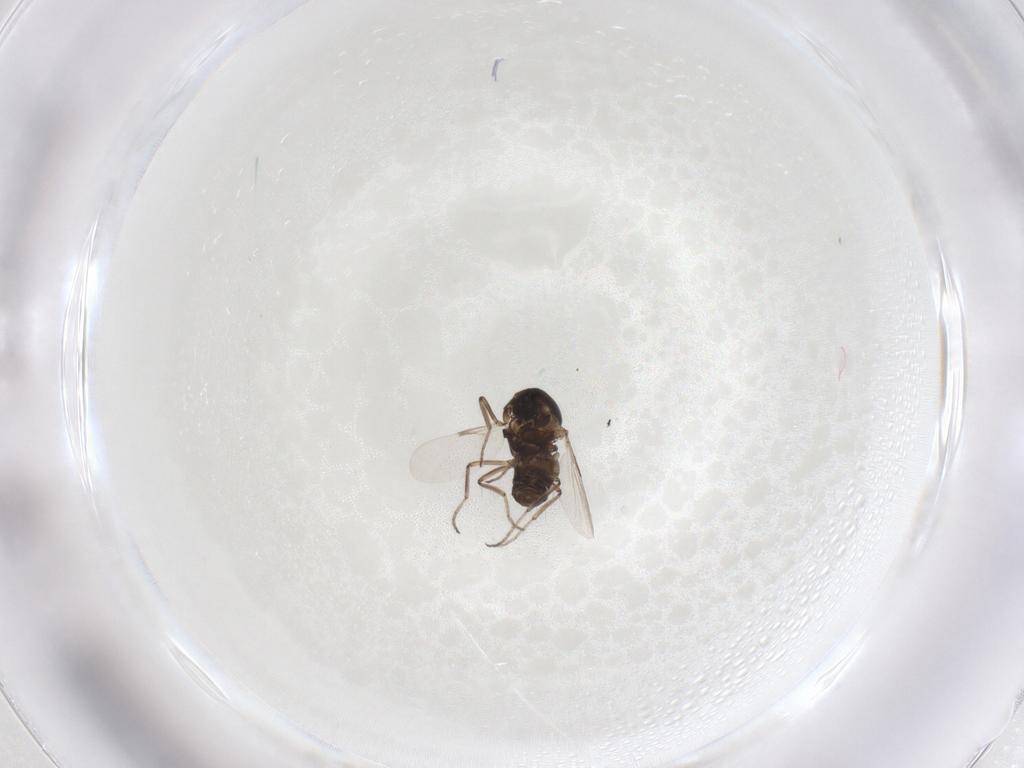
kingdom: Animalia
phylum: Arthropoda
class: Insecta
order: Diptera
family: Ceratopogonidae
